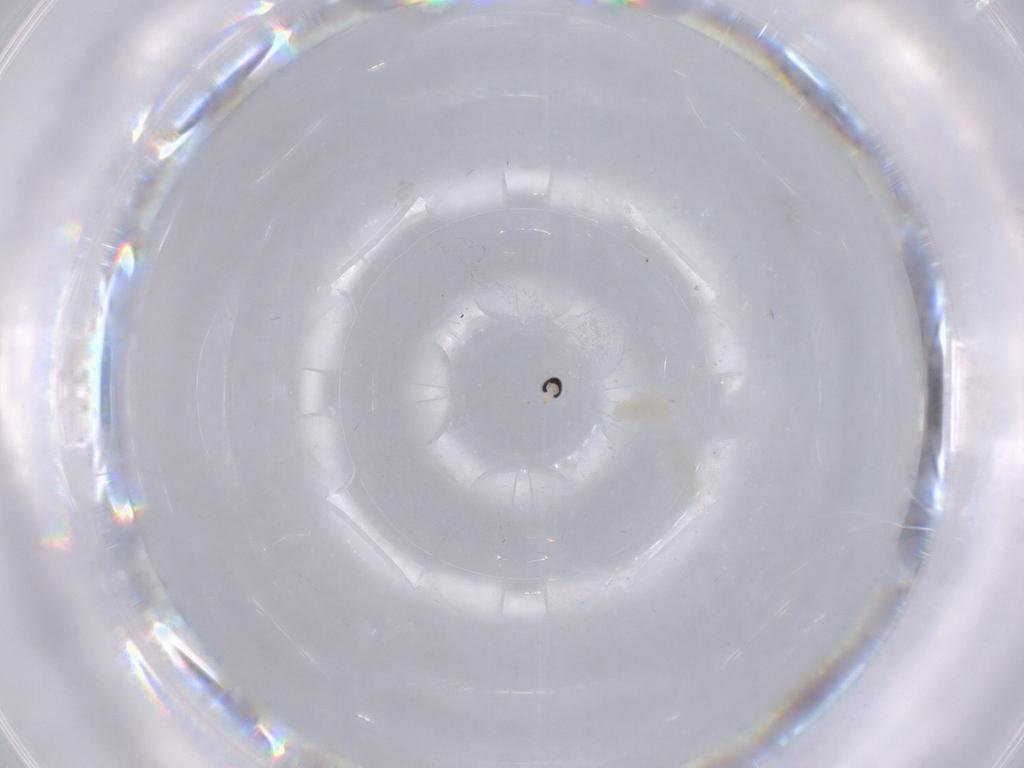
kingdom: Animalia
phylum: Arthropoda
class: Insecta
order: Diptera
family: Cecidomyiidae
